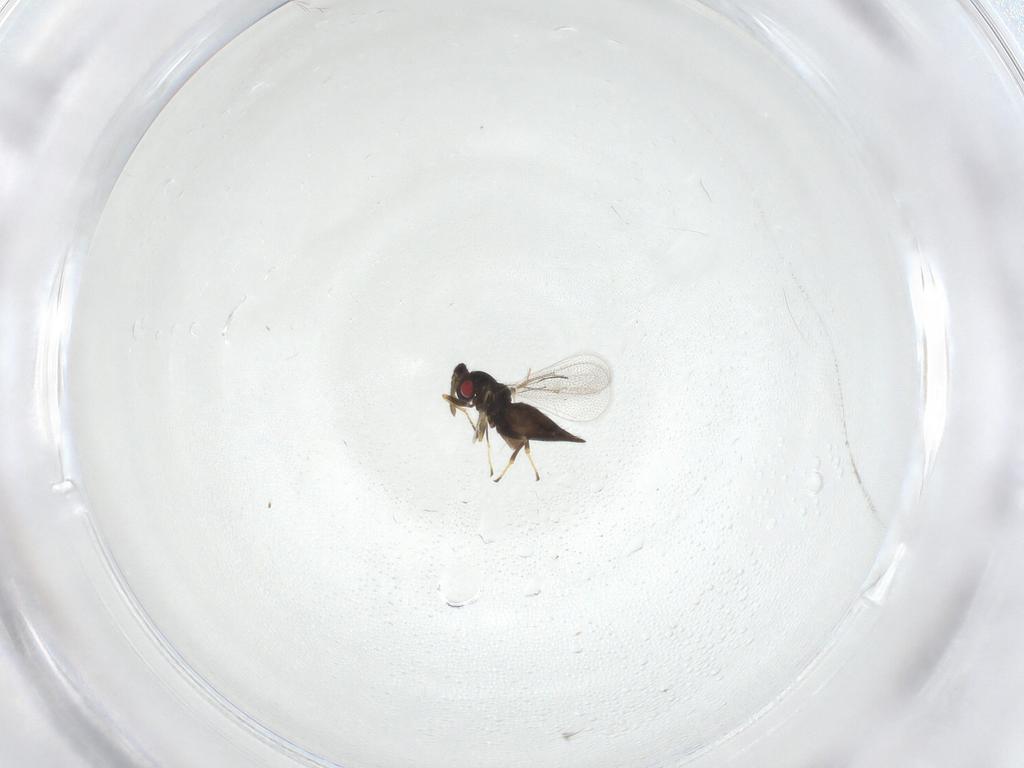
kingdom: Animalia
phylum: Arthropoda
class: Insecta
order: Hymenoptera
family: Eulophidae
